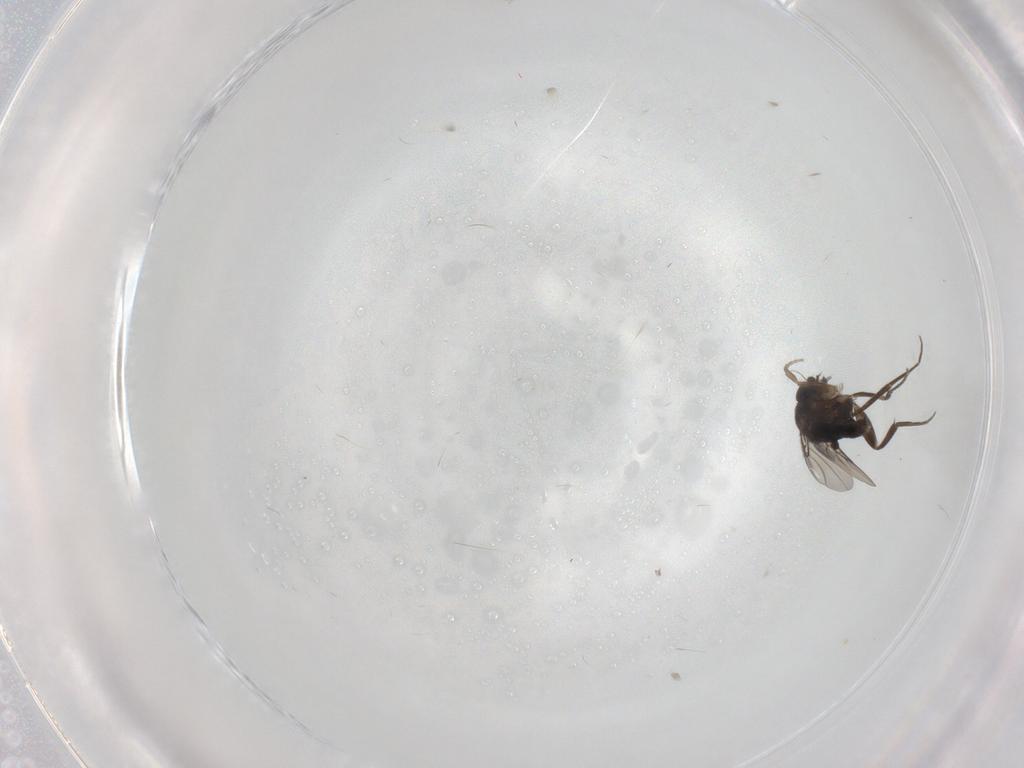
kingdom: Animalia
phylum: Arthropoda
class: Insecta
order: Diptera
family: Phoridae
